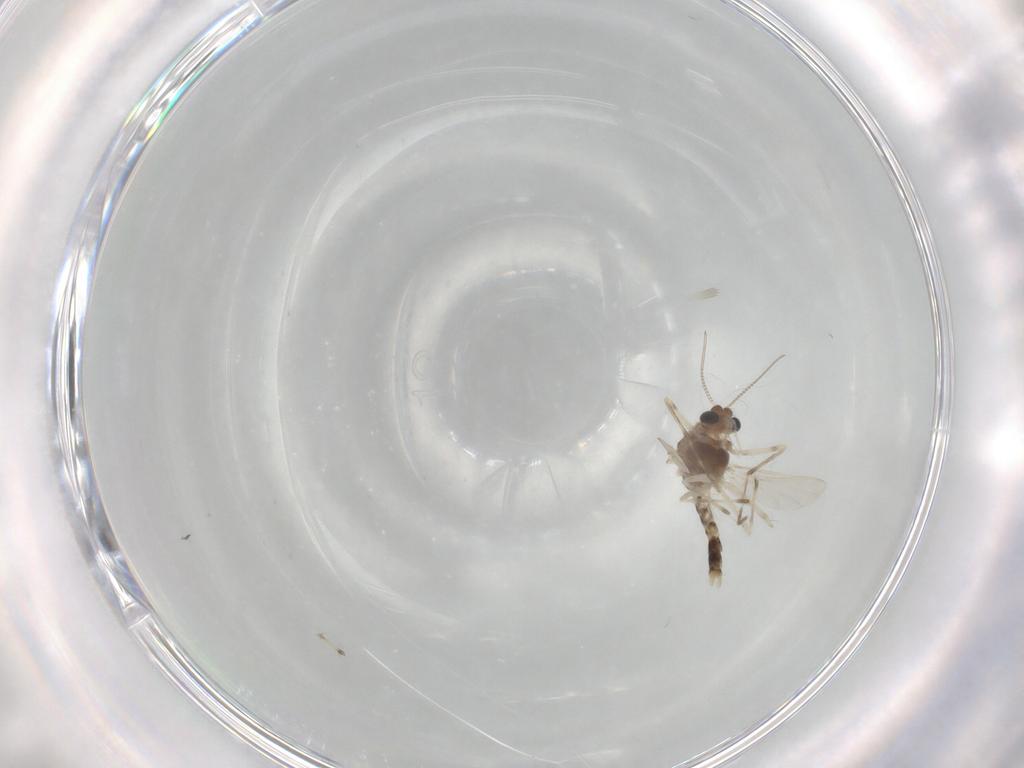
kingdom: Animalia
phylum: Arthropoda
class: Insecta
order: Diptera
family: Chironomidae
